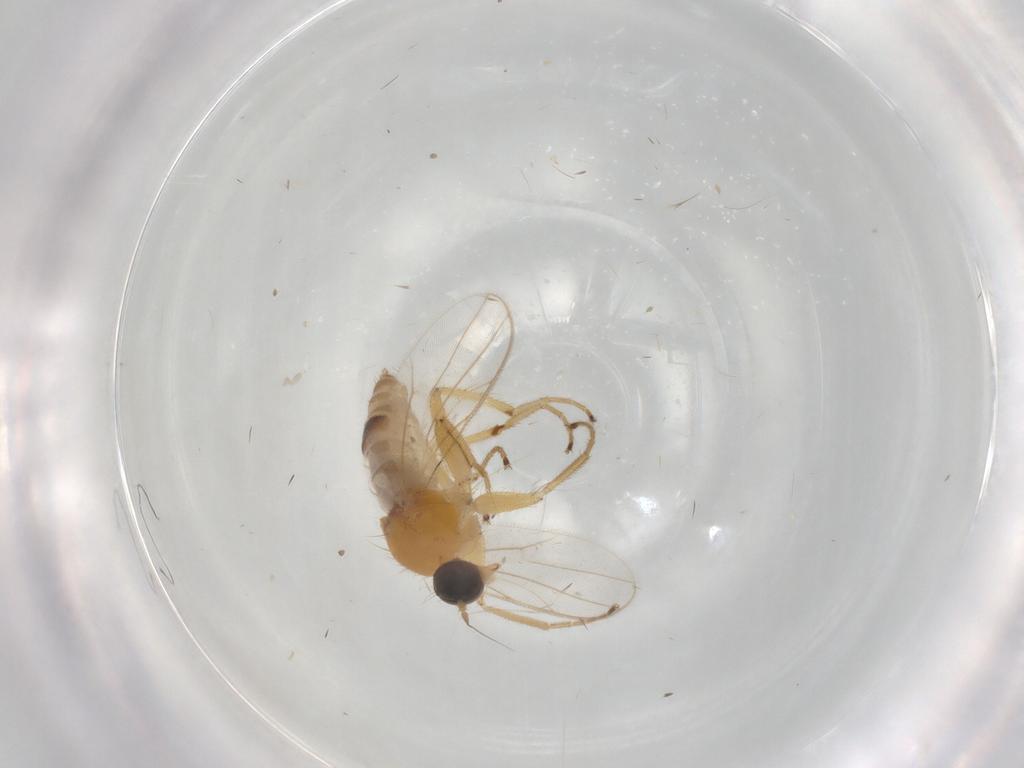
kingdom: Animalia
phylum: Arthropoda
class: Insecta
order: Diptera
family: Hybotidae
